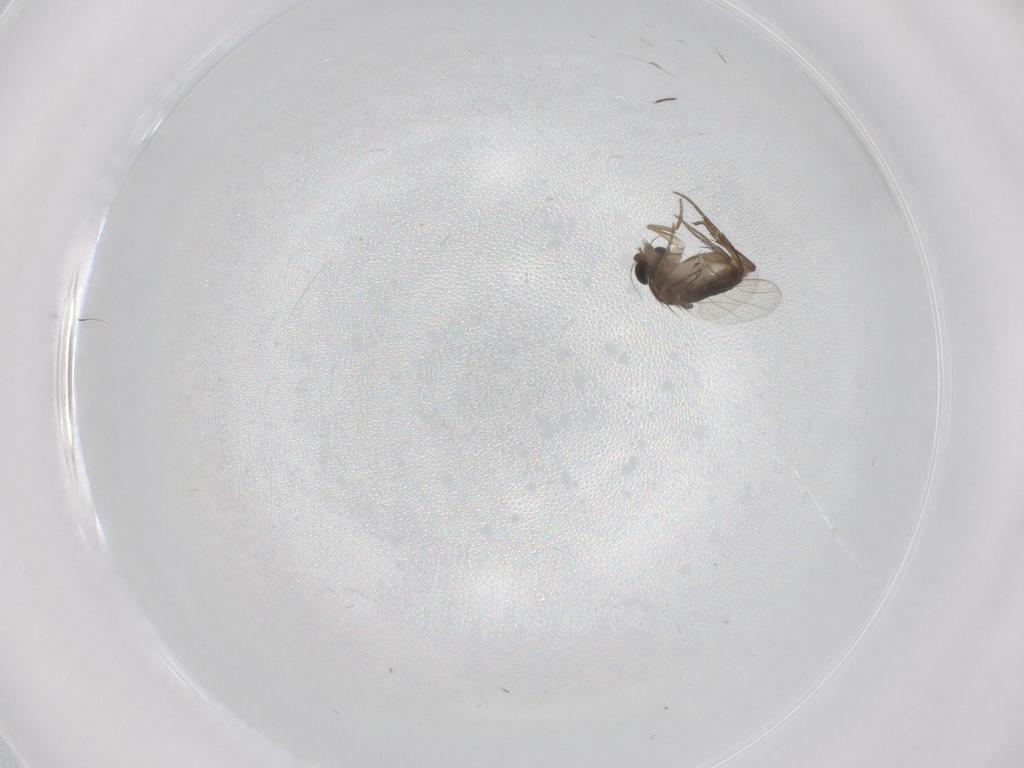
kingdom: Animalia
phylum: Arthropoda
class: Insecta
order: Diptera
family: Phoridae
